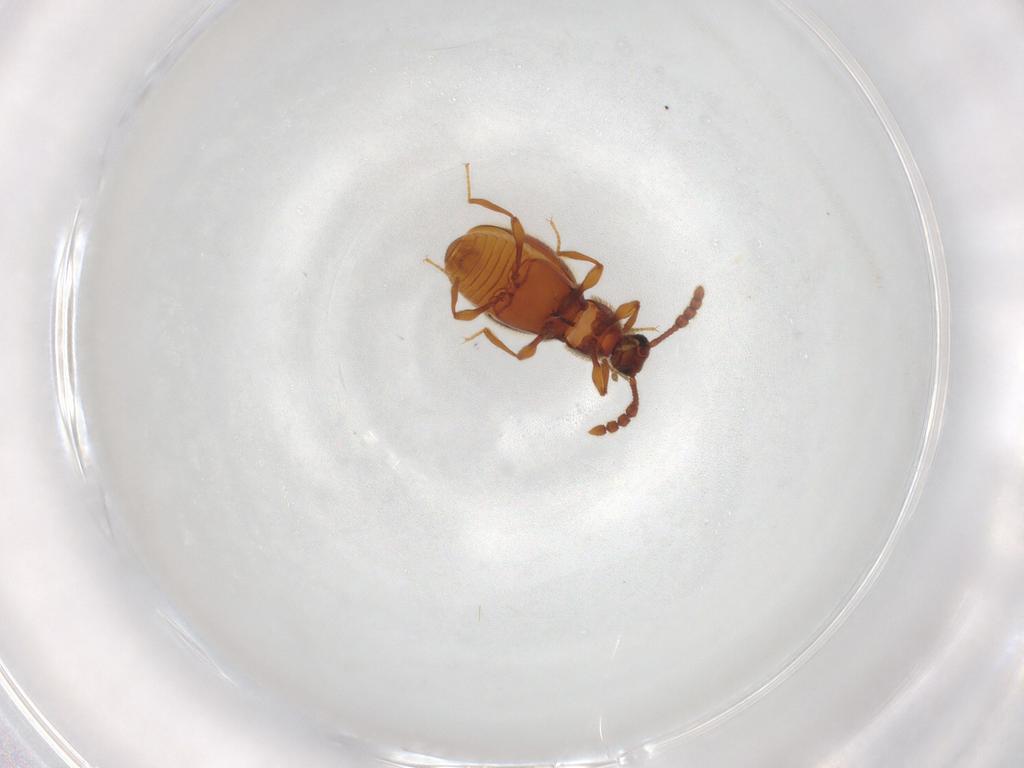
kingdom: Animalia
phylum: Arthropoda
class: Insecta
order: Coleoptera
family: Staphylinidae
